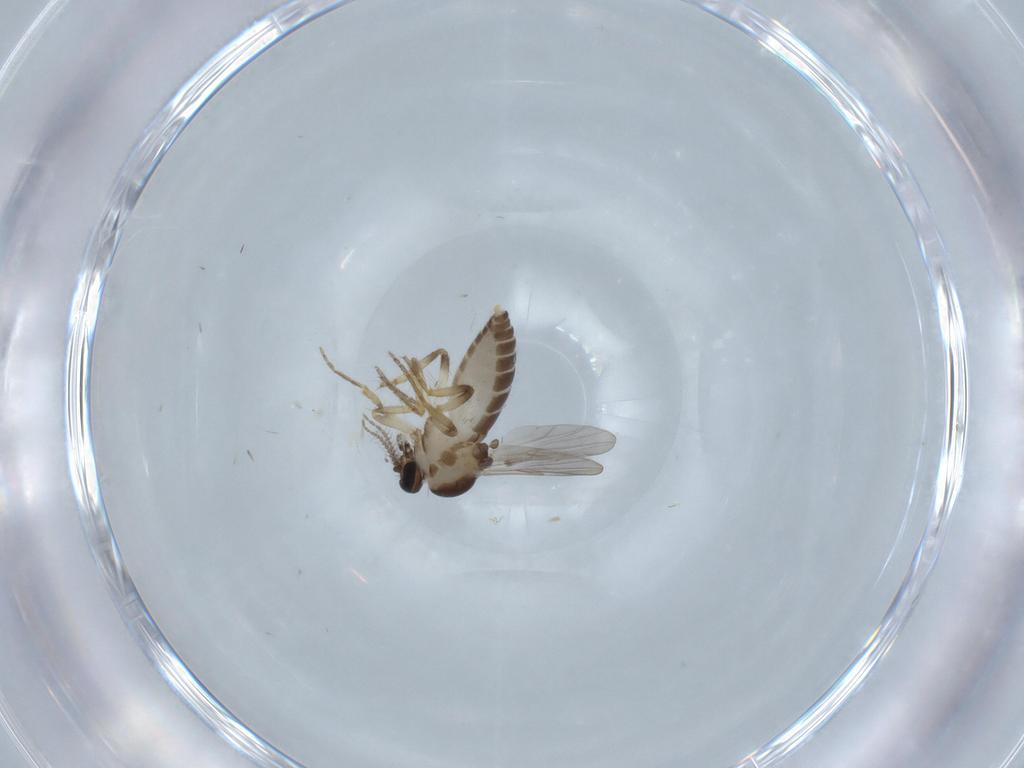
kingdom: Animalia
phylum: Arthropoda
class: Insecta
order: Diptera
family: Ceratopogonidae
